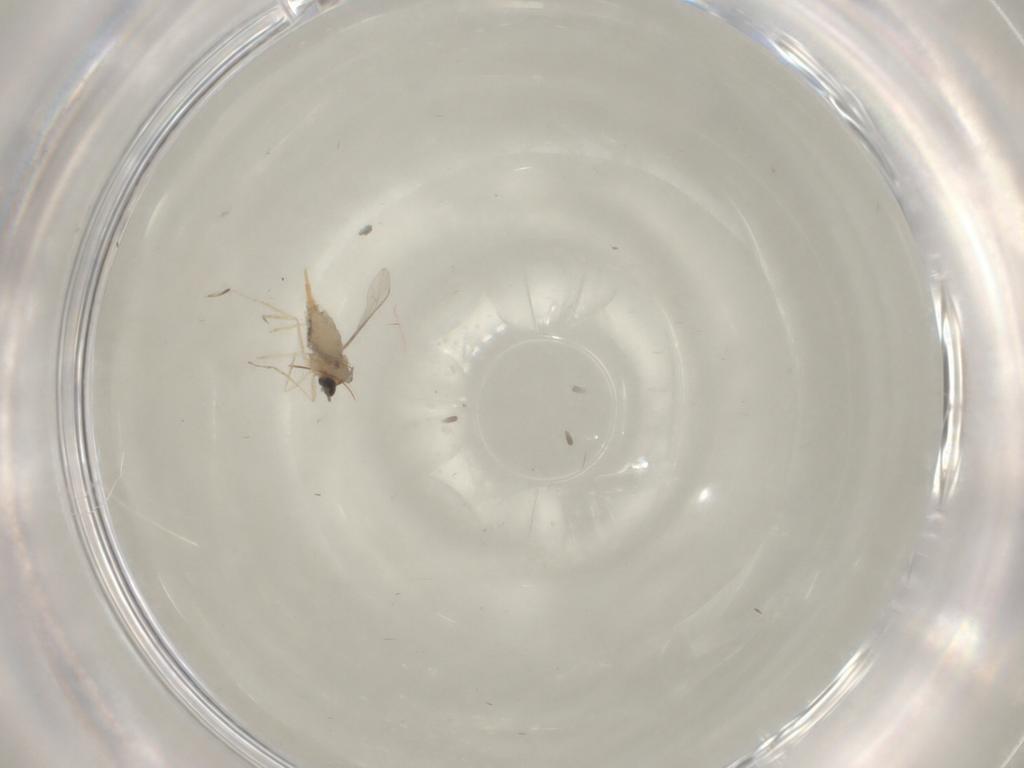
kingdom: Animalia
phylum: Arthropoda
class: Insecta
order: Diptera
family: Cecidomyiidae
